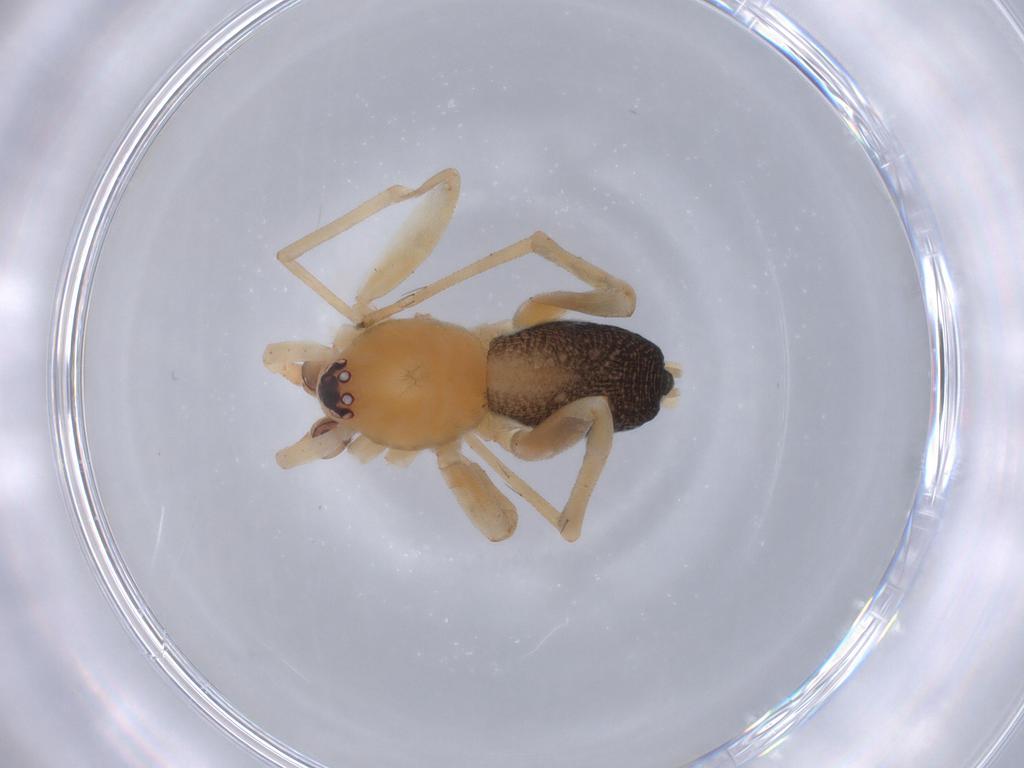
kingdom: Animalia
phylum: Arthropoda
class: Arachnida
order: Araneae
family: Corinnidae
